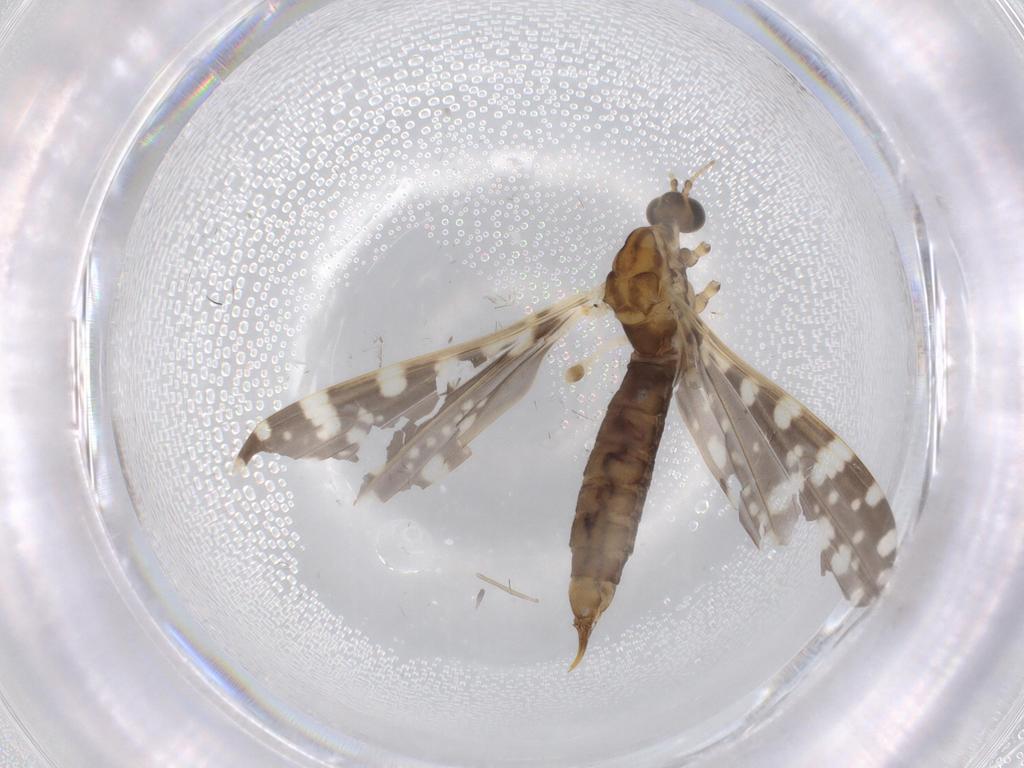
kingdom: Animalia
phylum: Arthropoda
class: Insecta
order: Diptera
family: Limoniidae
